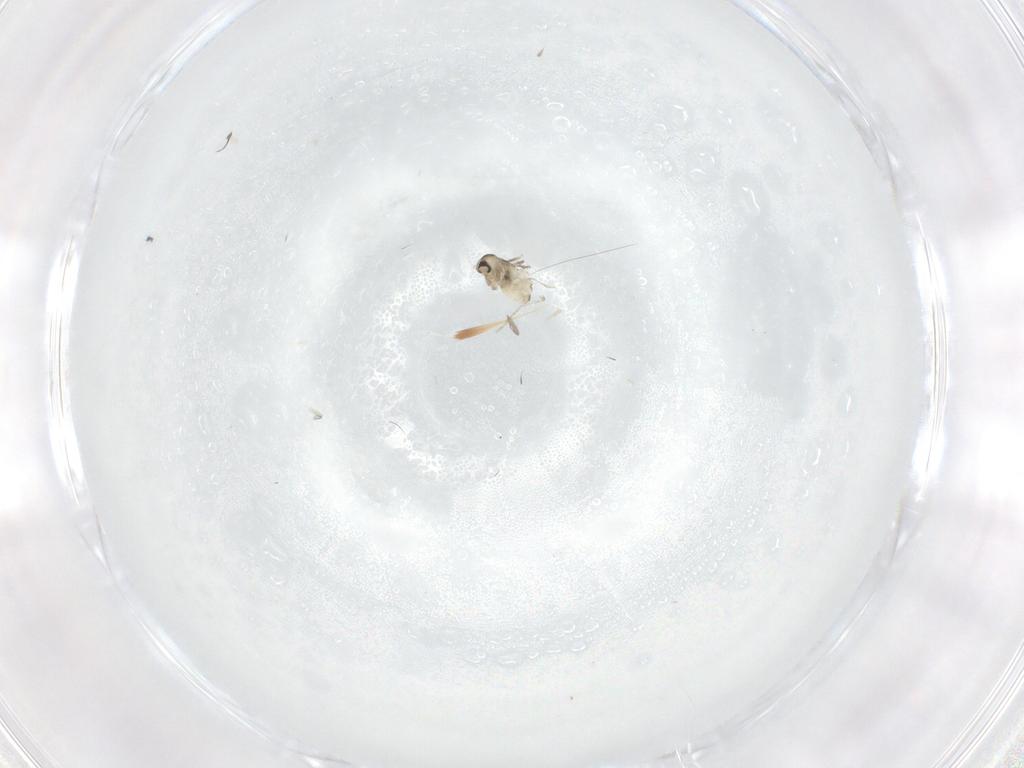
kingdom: Animalia
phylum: Arthropoda
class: Insecta
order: Diptera
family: Cecidomyiidae
